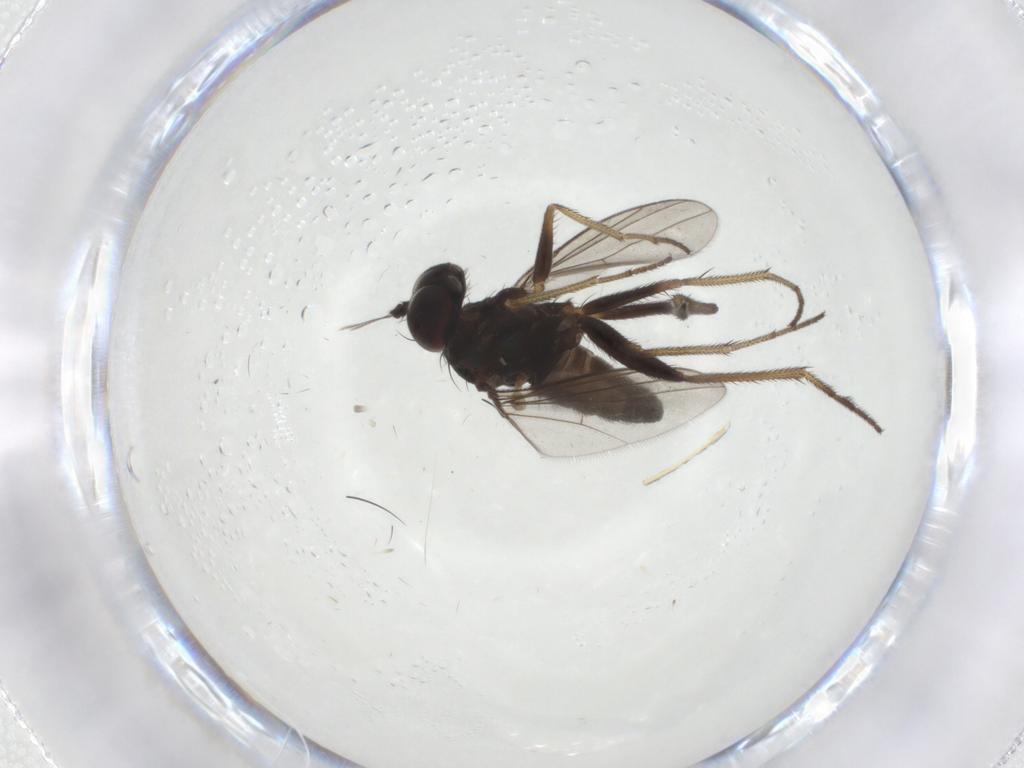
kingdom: Animalia
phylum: Arthropoda
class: Insecta
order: Diptera
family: Dolichopodidae
